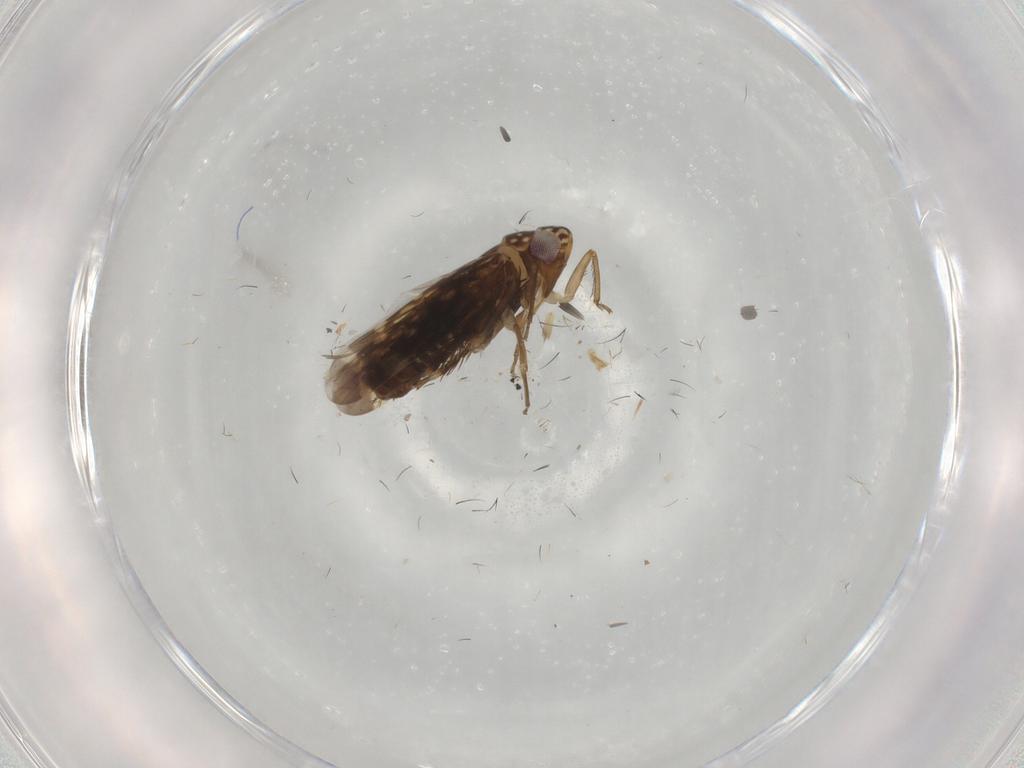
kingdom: Animalia
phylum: Arthropoda
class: Insecta
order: Hemiptera
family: Cicadellidae
